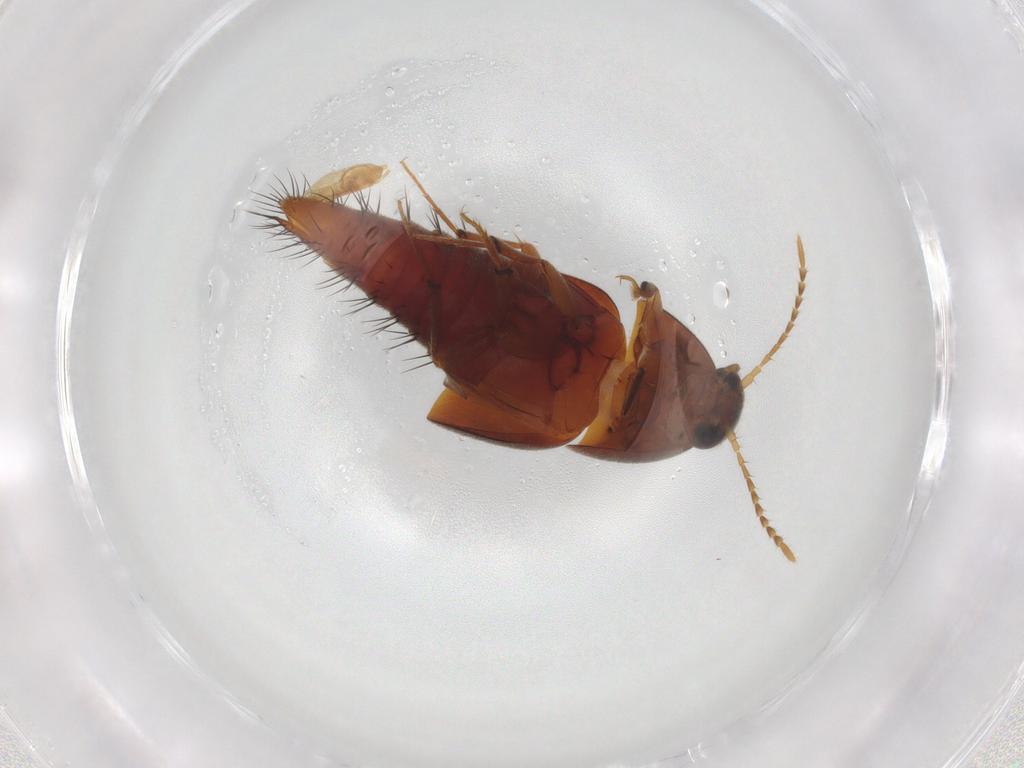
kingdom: Animalia
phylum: Arthropoda
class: Insecta
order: Coleoptera
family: Staphylinidae
